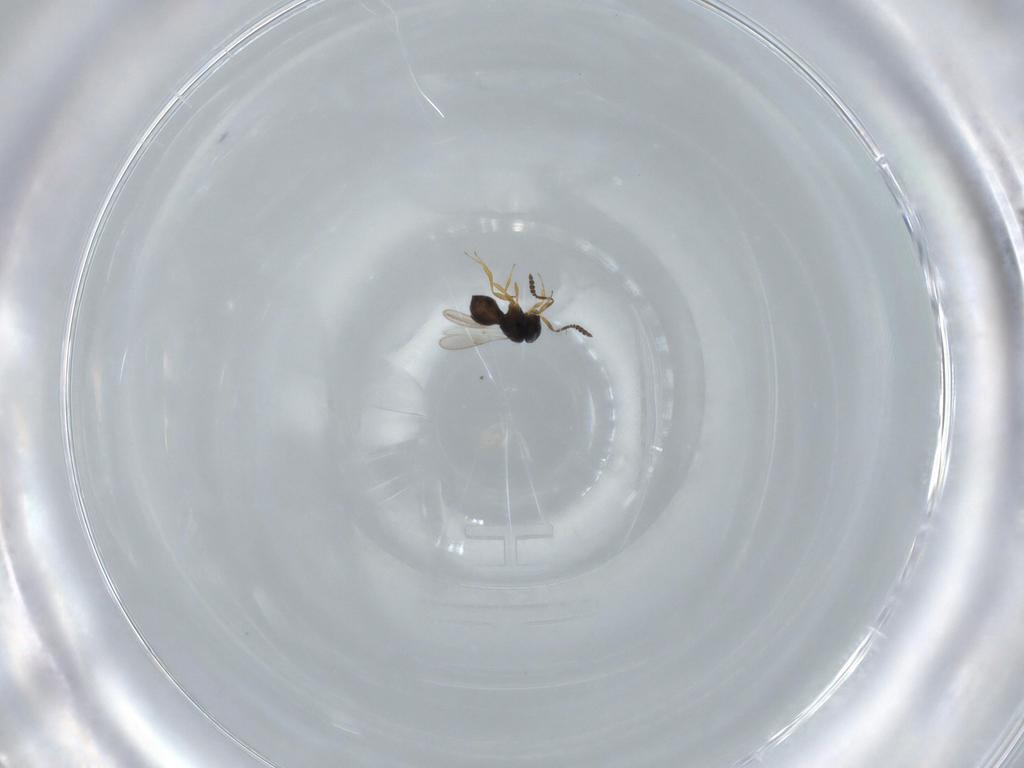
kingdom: Animalia
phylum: Arthropoda
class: Insecta
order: Hymenoptera
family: Scelionidae
